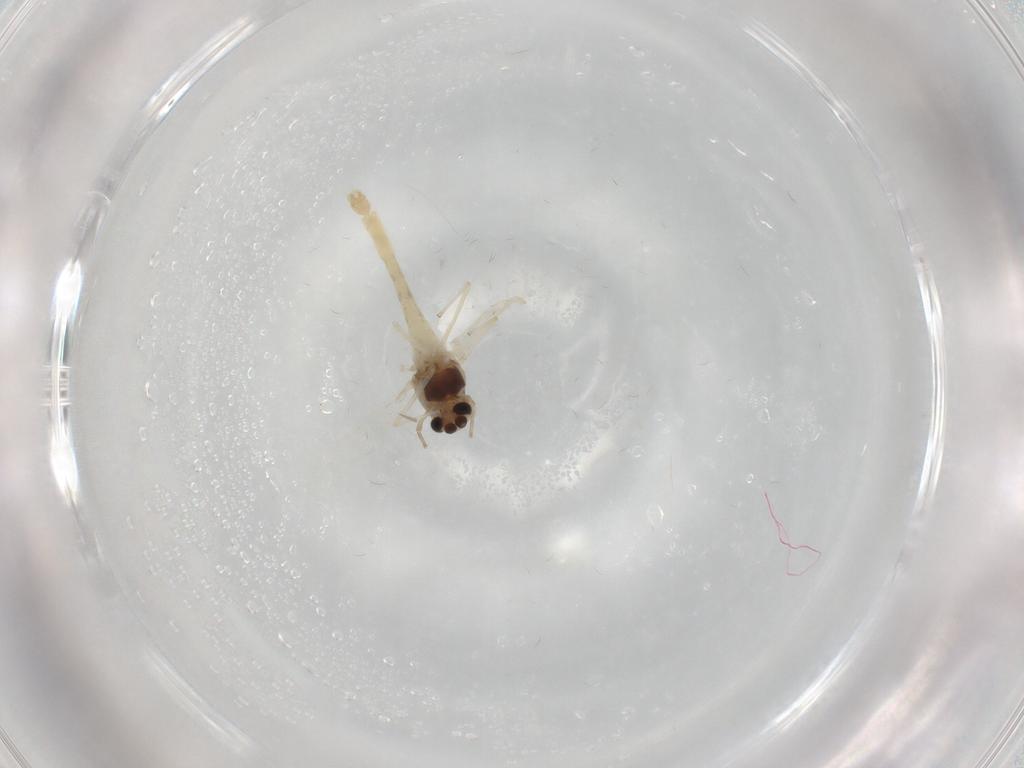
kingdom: Animalia
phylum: Arthropoda
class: Insecta
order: Diptera
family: Chironomidae
